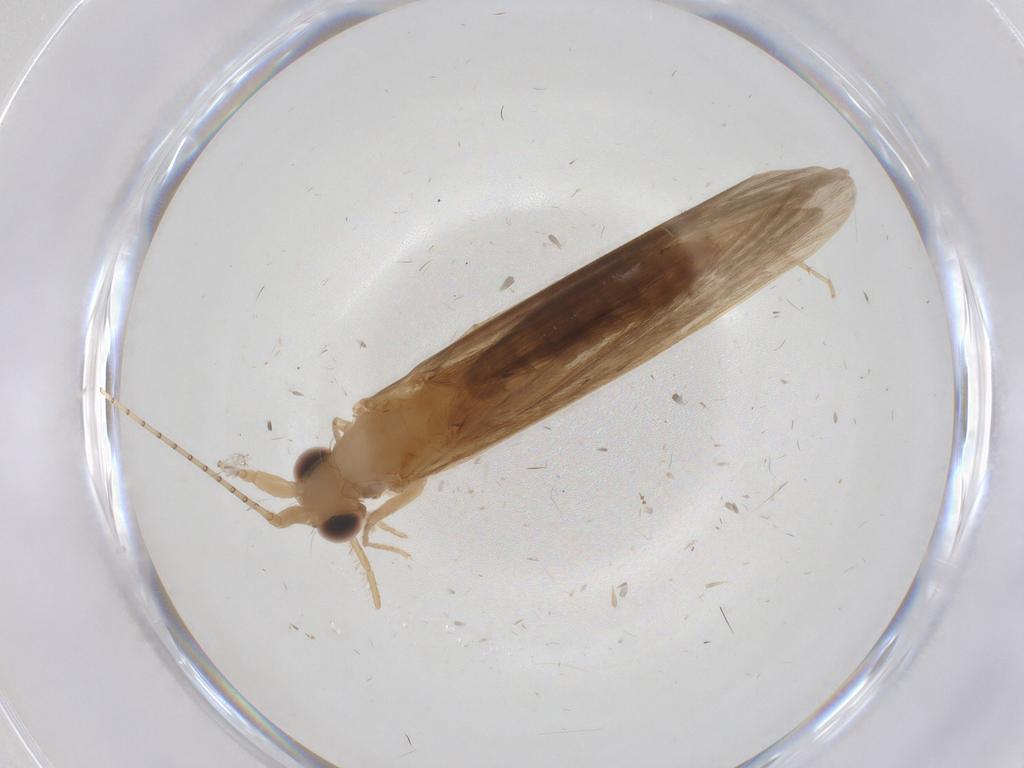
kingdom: Animalia
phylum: Arthropoda
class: Insecta
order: Trichoptera
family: Leptoceridae
